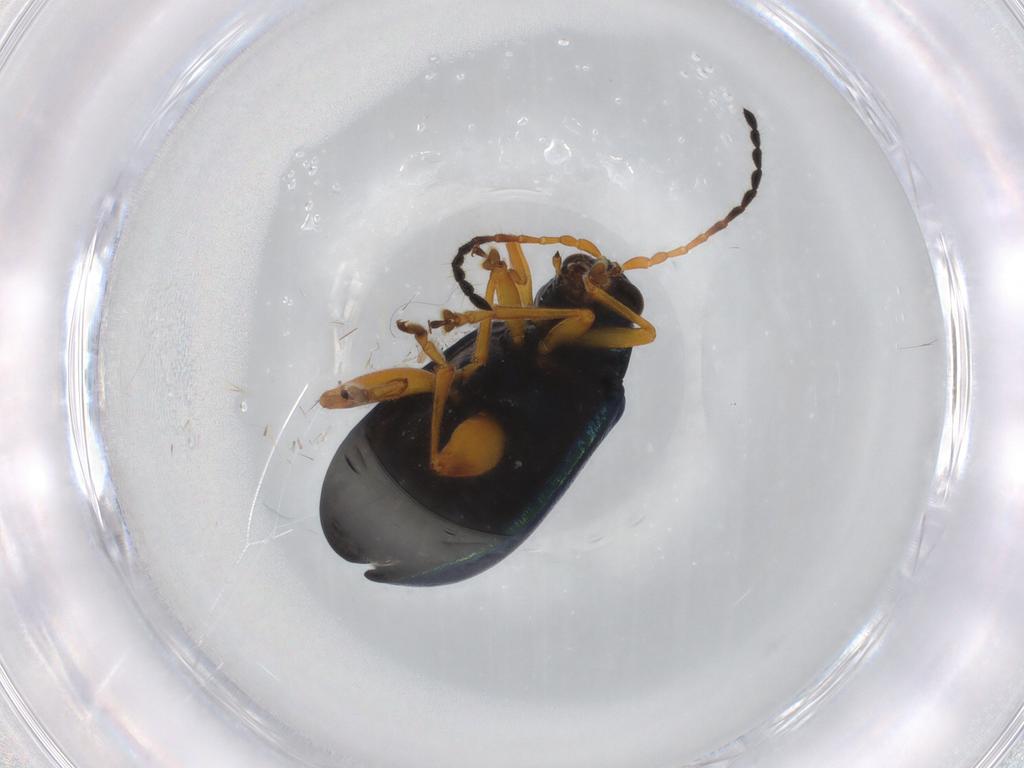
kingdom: Animalia
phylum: Arthropoda
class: Insecta
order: Coleoptera
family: Chrysomelidae
